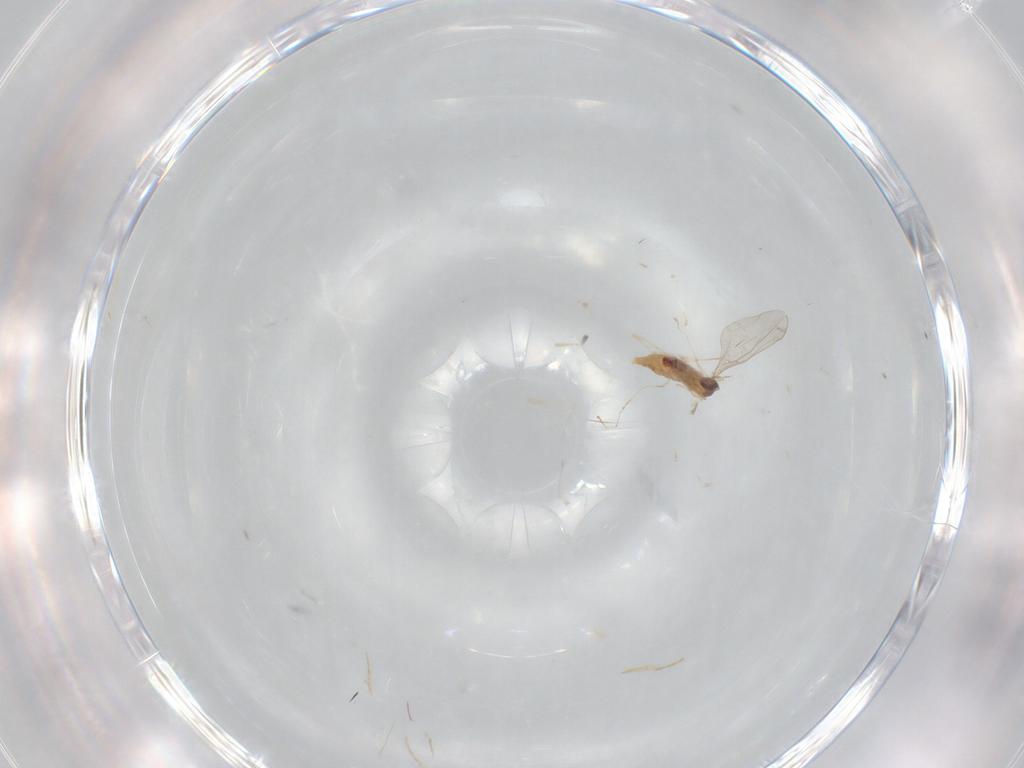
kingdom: Animalia
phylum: Arthropoda
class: Insecta
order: Diptera
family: Cecidomyiidae
